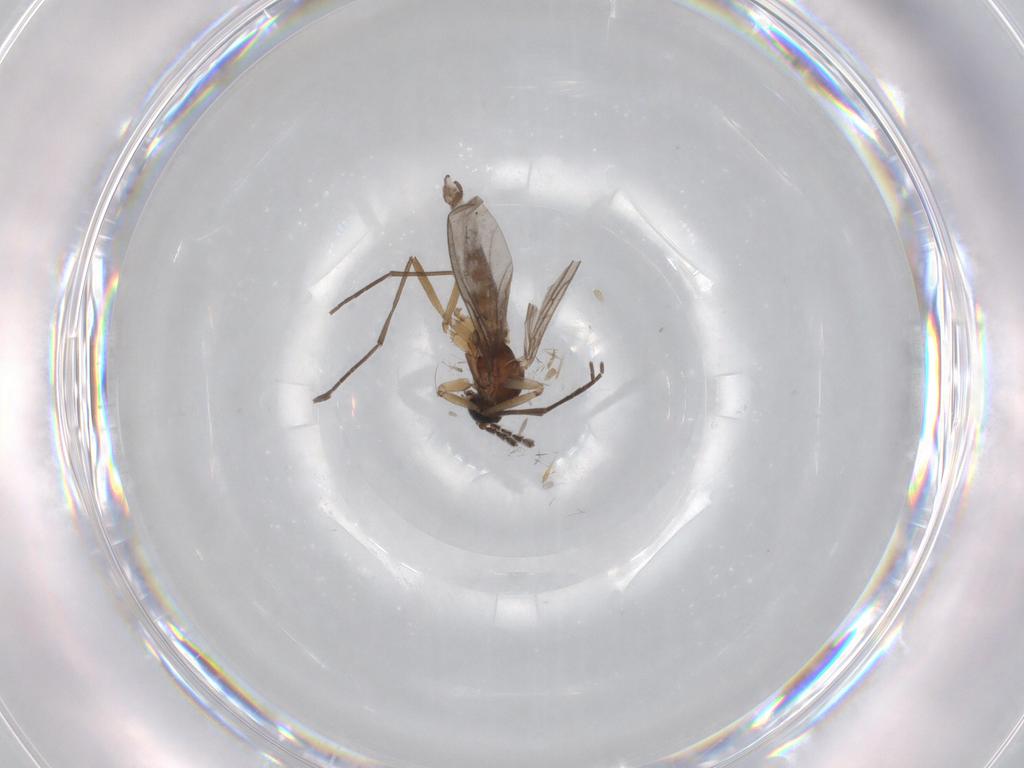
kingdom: Animalia
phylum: Arthropoda
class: Insecta
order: Diptera
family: Sciaridae
